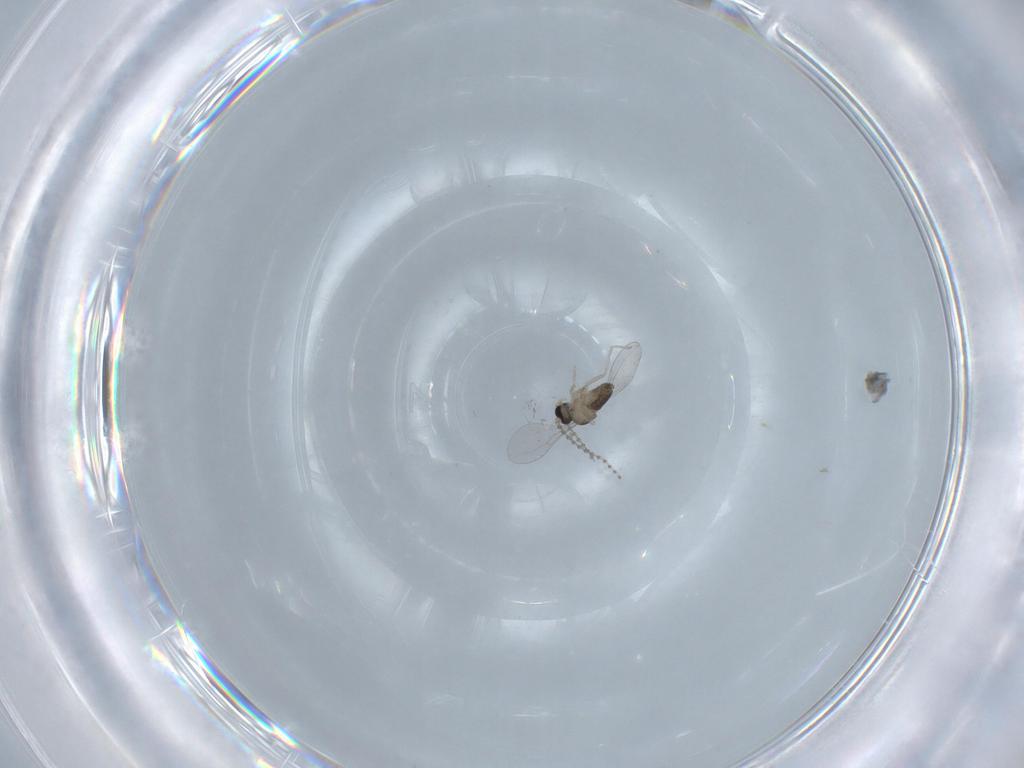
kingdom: Animalia
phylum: Arthropoda
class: Insecta
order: Diptera
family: Cecidomyiidae
